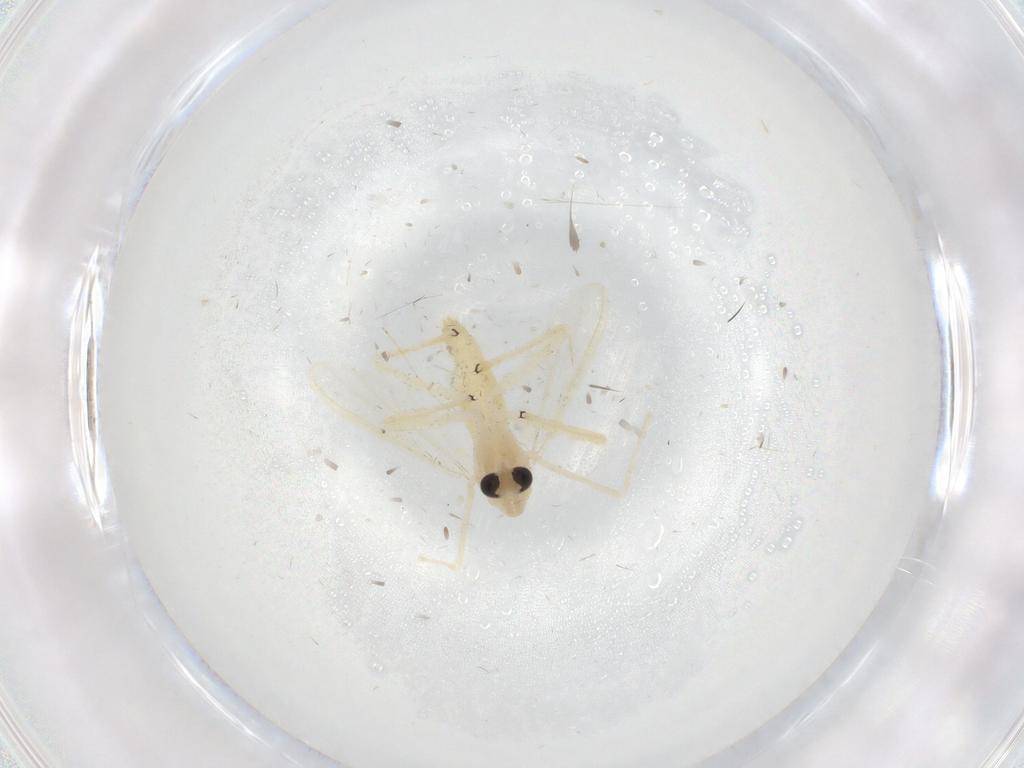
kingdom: Animalia
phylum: Arthropoda
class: Insecta
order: Diptera
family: Chironomidae
